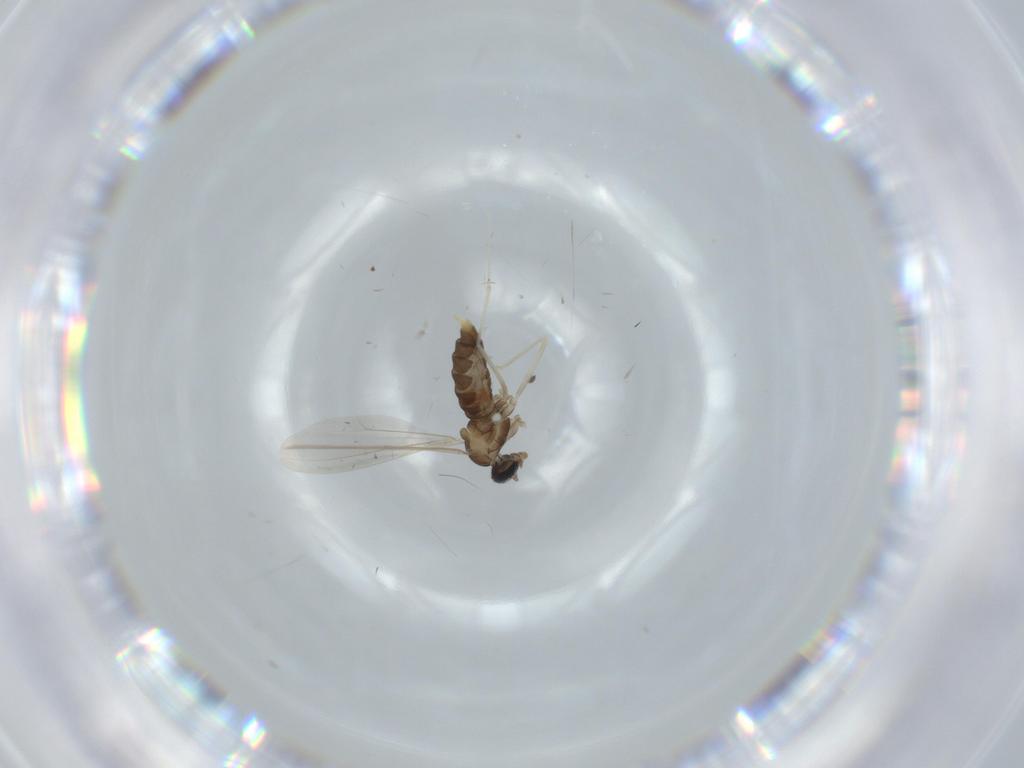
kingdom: Animalia
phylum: Arthropoda
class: Insecta
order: Diptera
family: Cecidomyiidae
